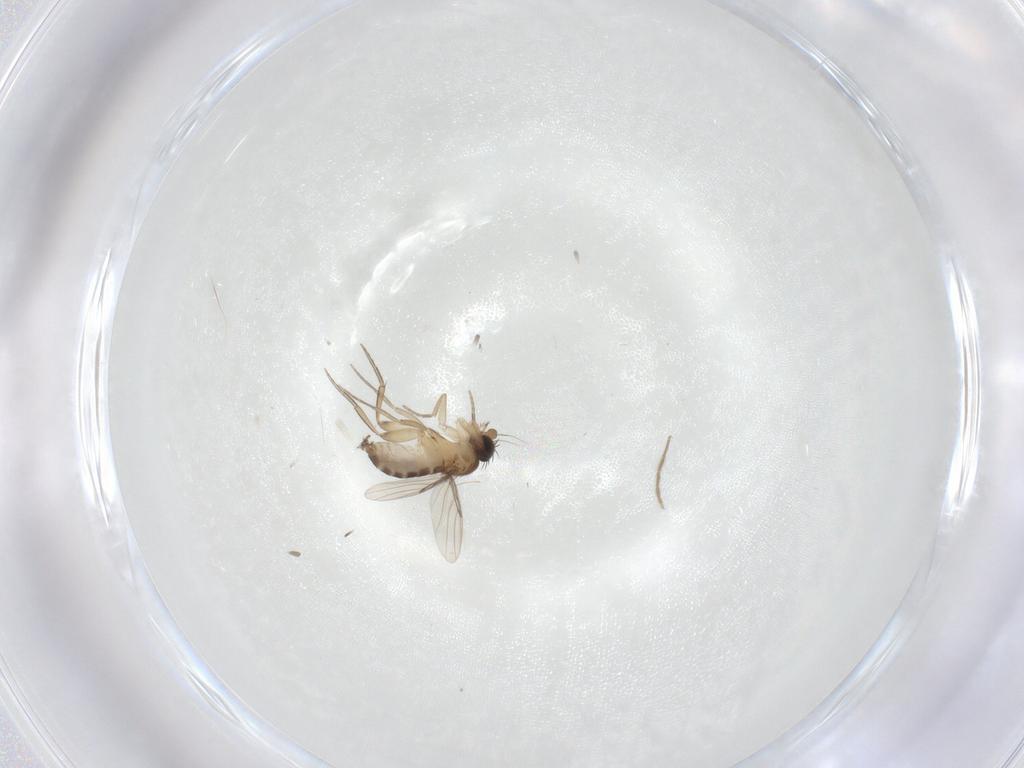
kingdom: Animalia
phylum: Arthropoda
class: Insecta
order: Diptera
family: Phoridae
